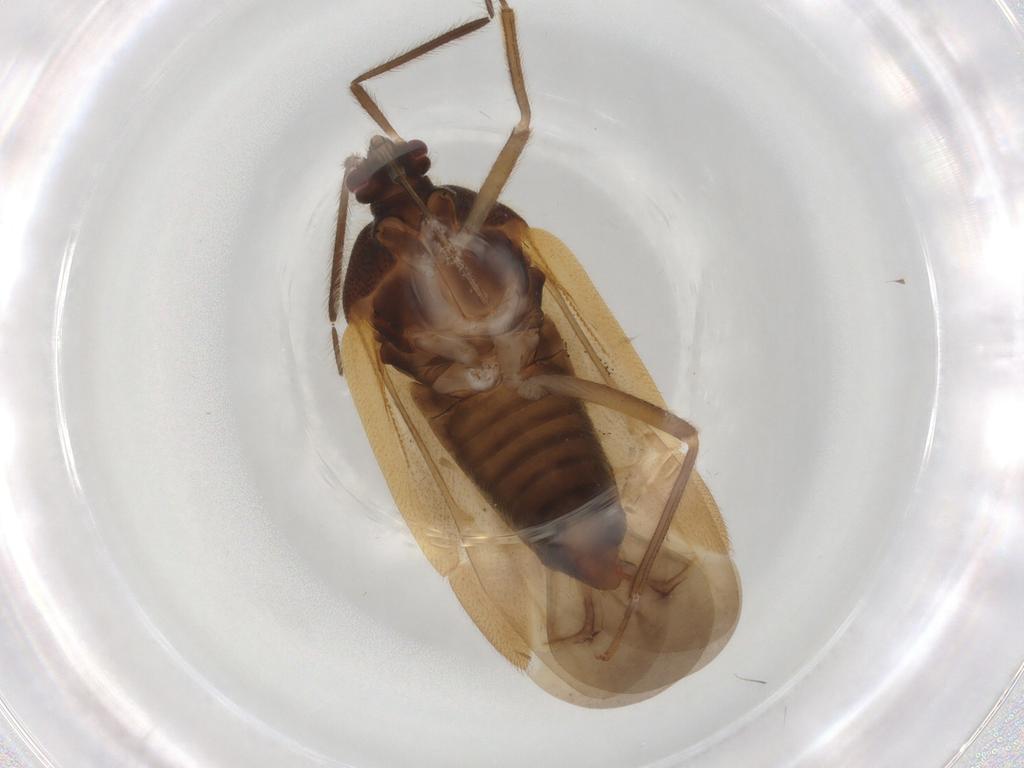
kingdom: Animalia
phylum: Arthropoda
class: Insecta
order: Hemiptera
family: Miridae
